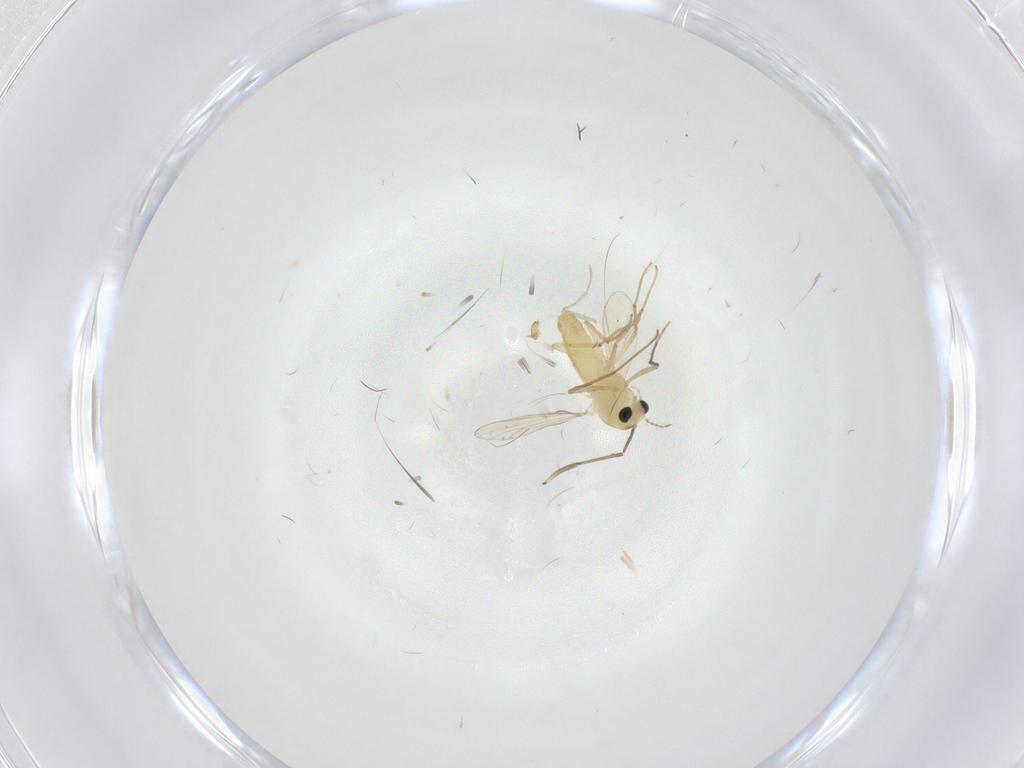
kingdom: Animalia
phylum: Arthropoda
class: Insecta
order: Diptera
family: Cecidomyiidae
